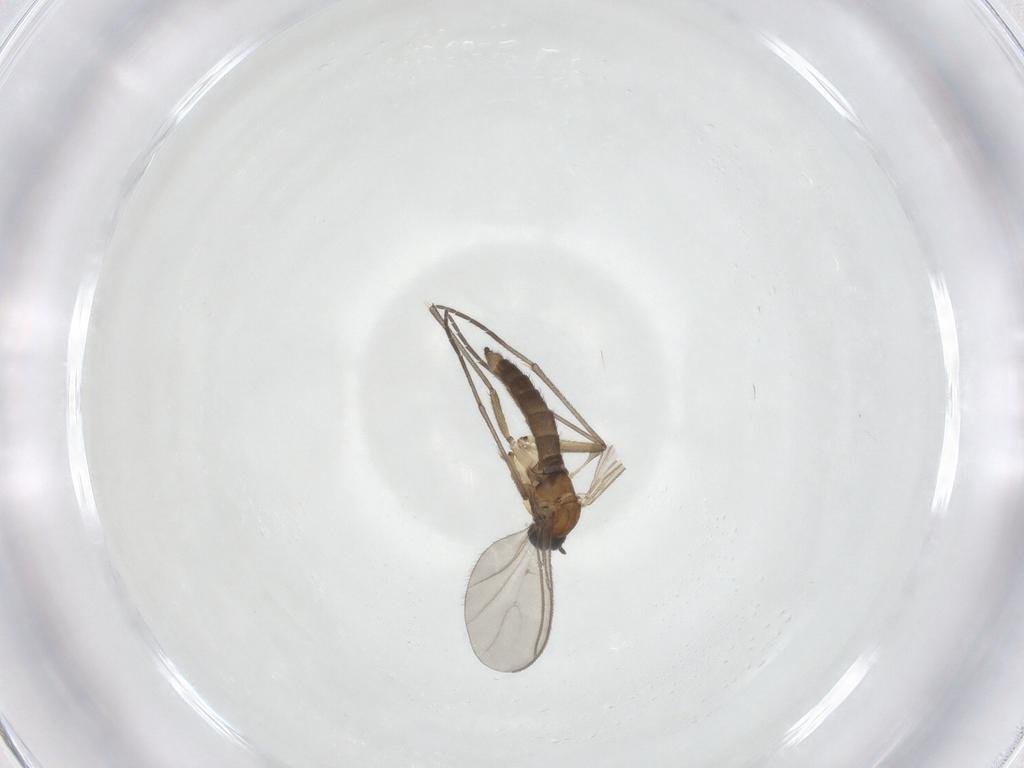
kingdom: Animalia
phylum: Arthropoda
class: Insecta
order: Diptera
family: Sciaridae
